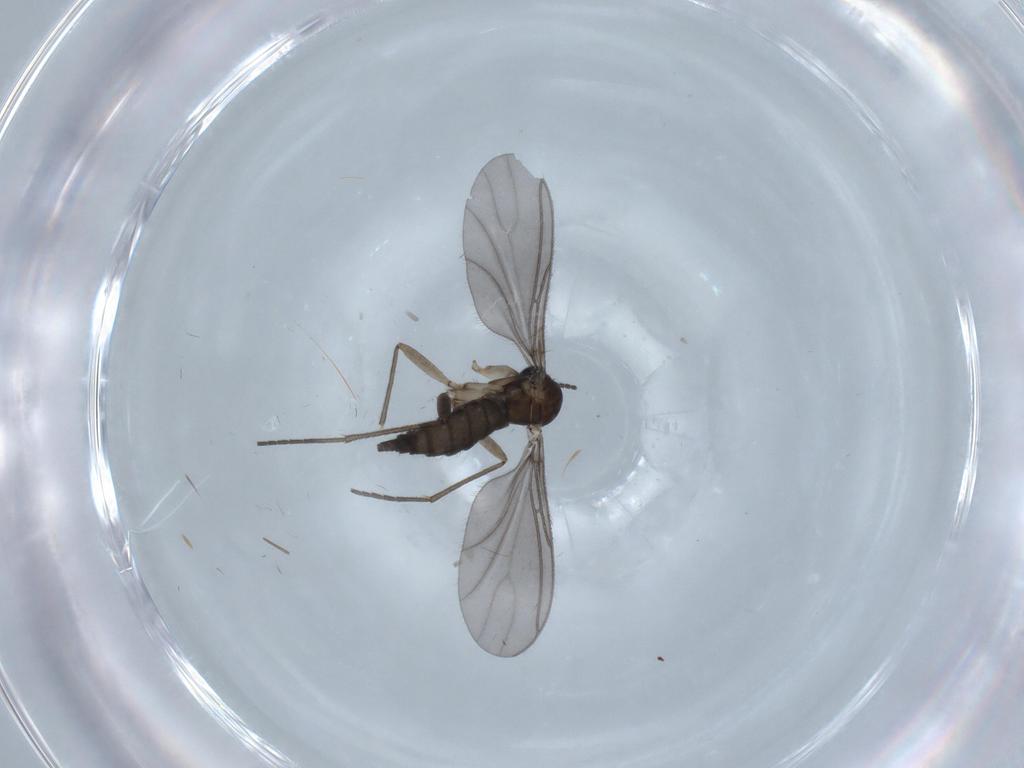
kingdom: Animalia
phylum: Arthropoda
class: Insecta
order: Diptera
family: Sciaridae
